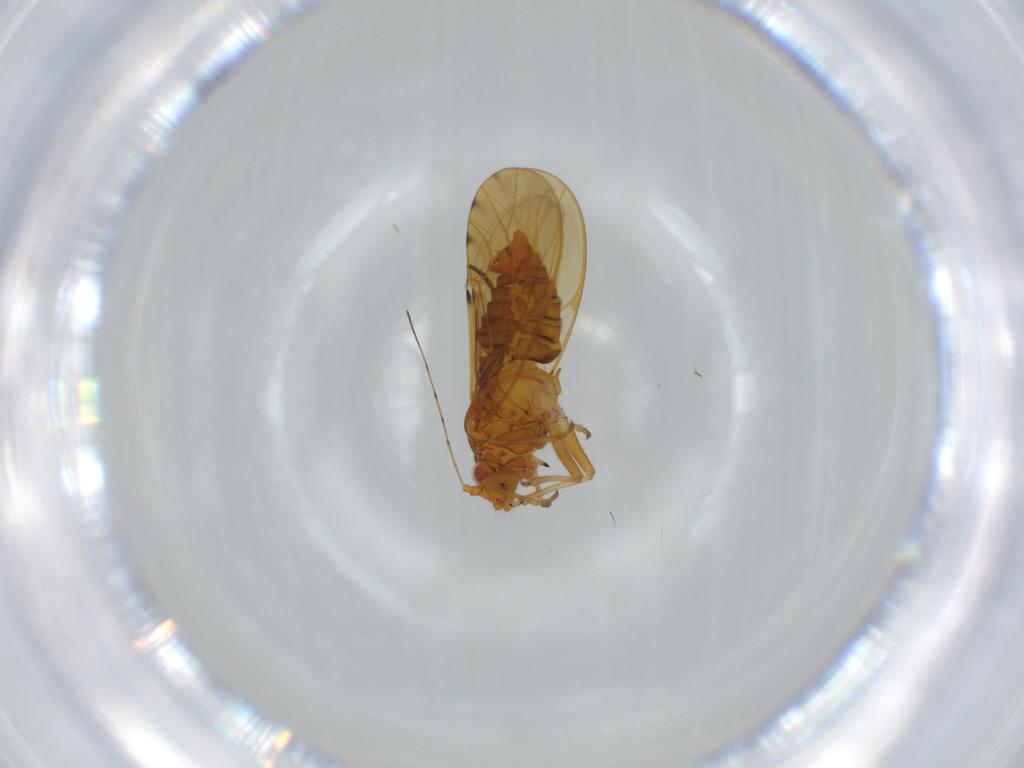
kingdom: Animalia
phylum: Arthropoda
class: Insecta
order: Hemiptera
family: Psylloidea_incertae_sedis
